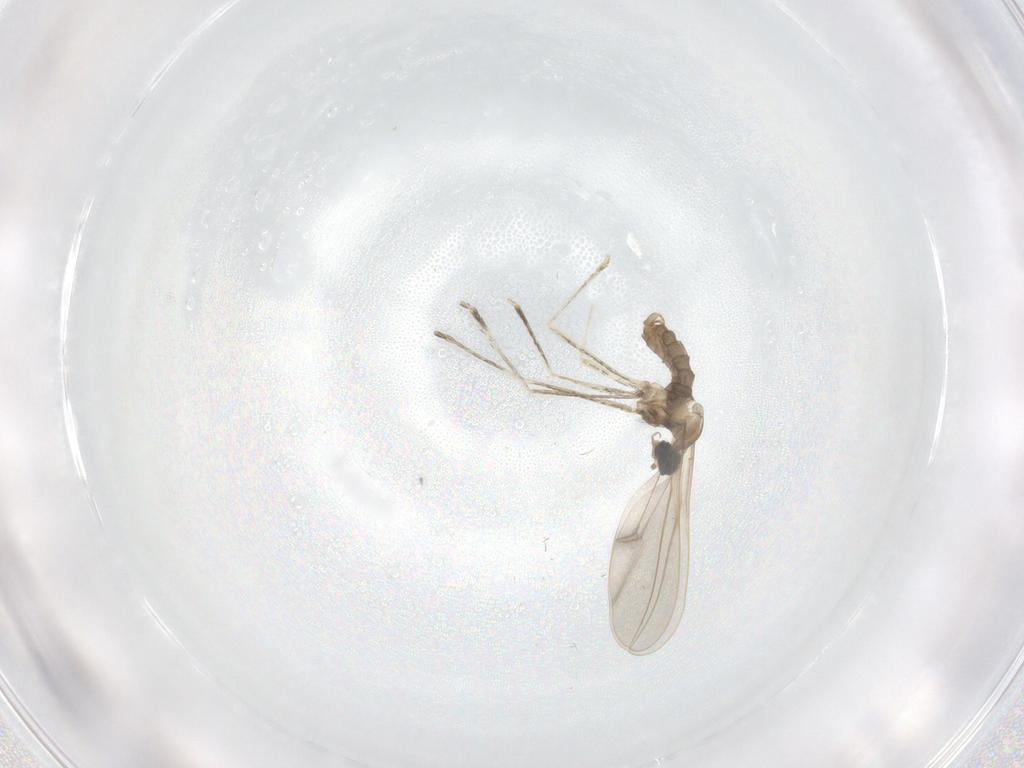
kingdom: Animalia
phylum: Arthropoda
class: Insecta
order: Diptera
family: Cecidomyiidae
